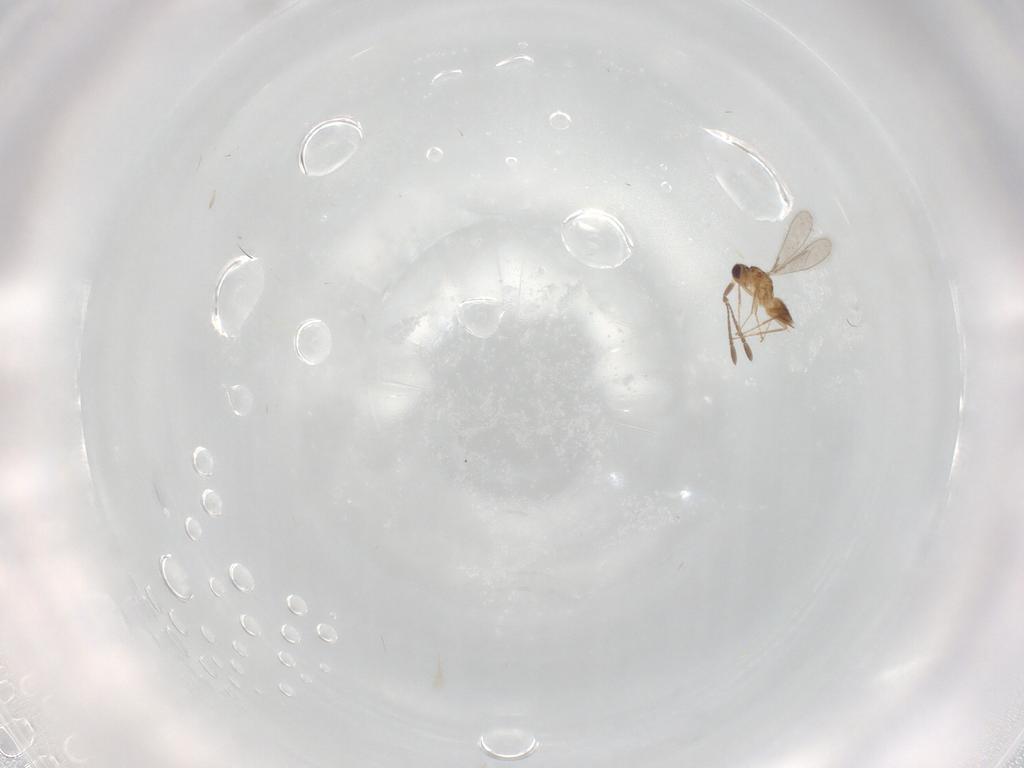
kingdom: Animalia
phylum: Arthropoda
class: Insecta
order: Hymenoptera
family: Mymaridae
